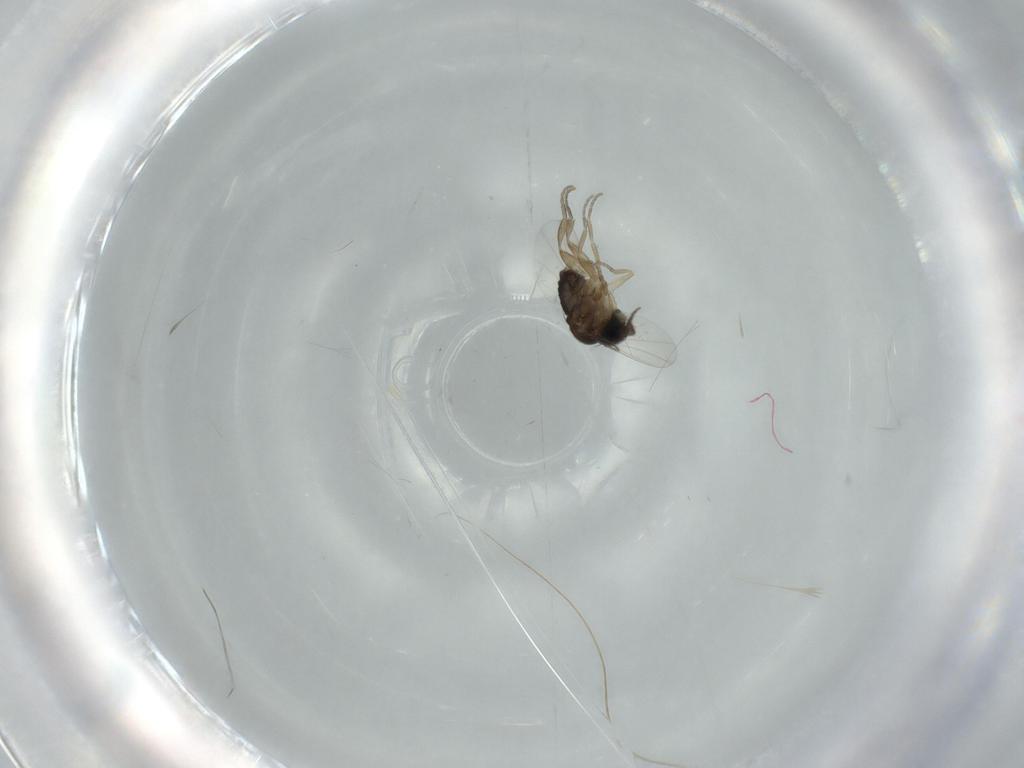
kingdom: Animalia
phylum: Arthropoda
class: Insecta
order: Diptera
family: Phoridae
